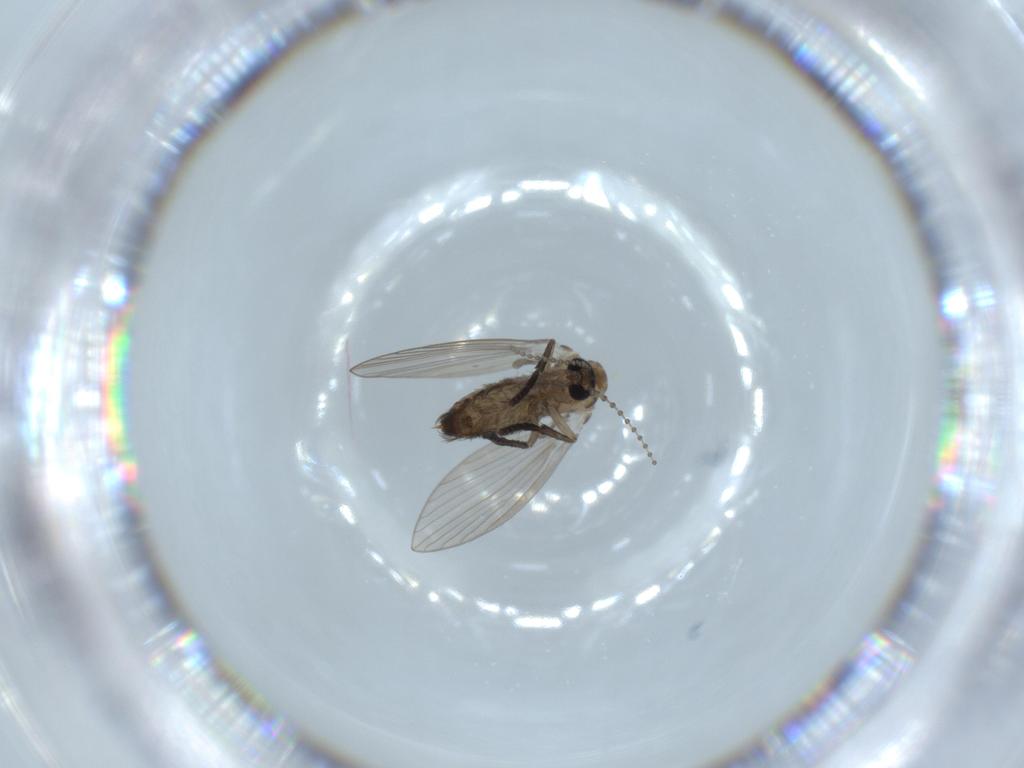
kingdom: Animalia
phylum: Arthropoda
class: Insecta
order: Diptera
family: Psychodidae
